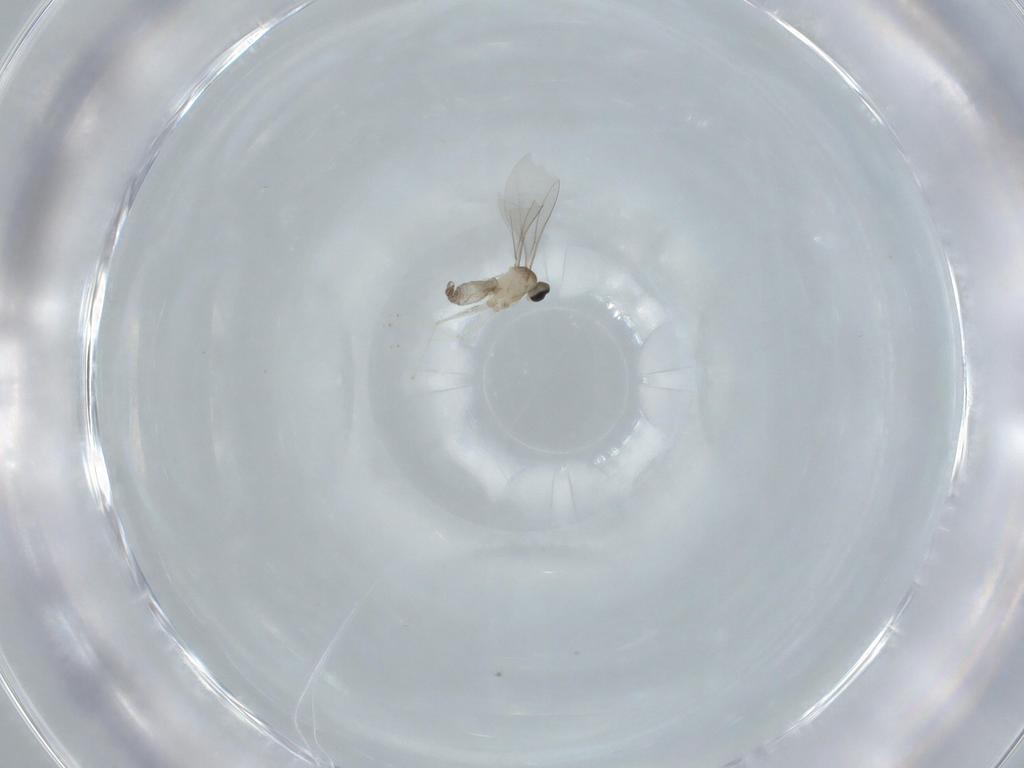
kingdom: Animalia
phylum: Arthropoda
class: Insecta
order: Diptera
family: Cecidomyiidae
